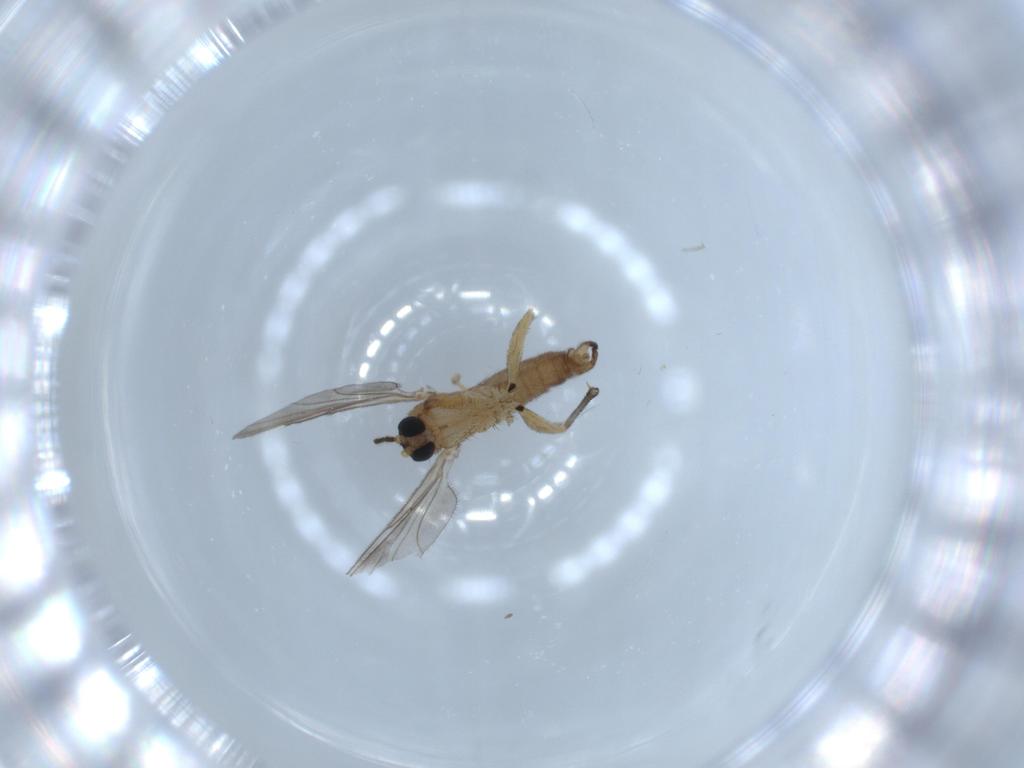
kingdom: Animalia
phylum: Arthropoda
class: Insecta
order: Diptera
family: Sciaridae
